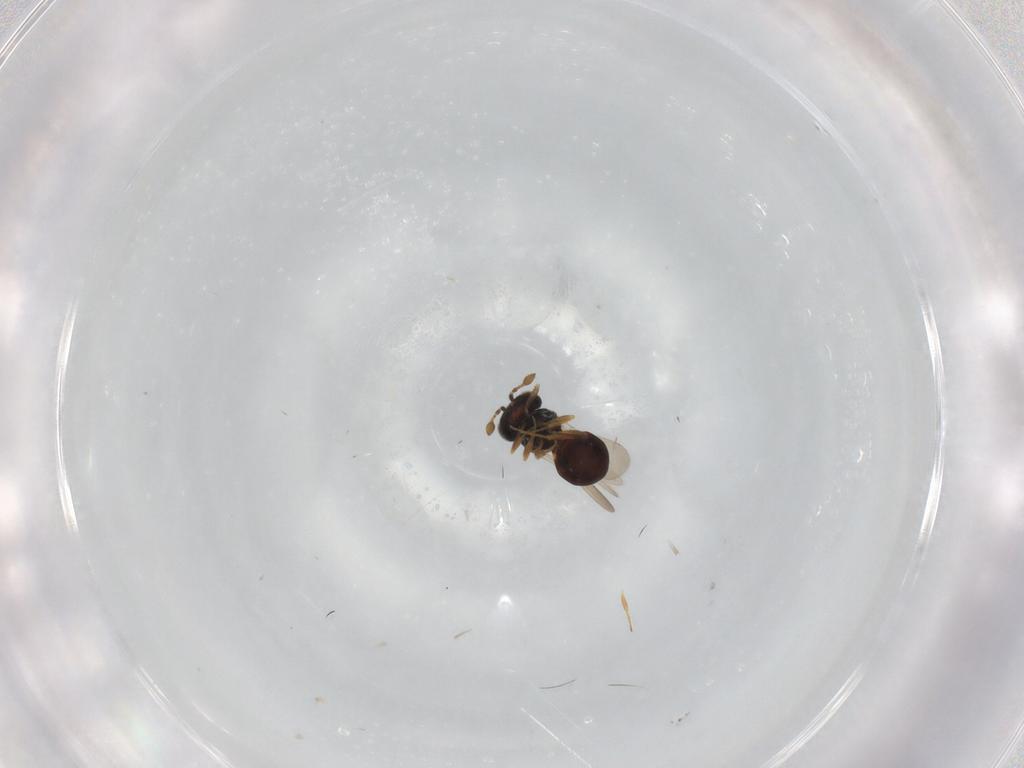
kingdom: Animalia
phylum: Arthropoda
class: Insecta
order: Hymenoptera
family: Scelionidae
